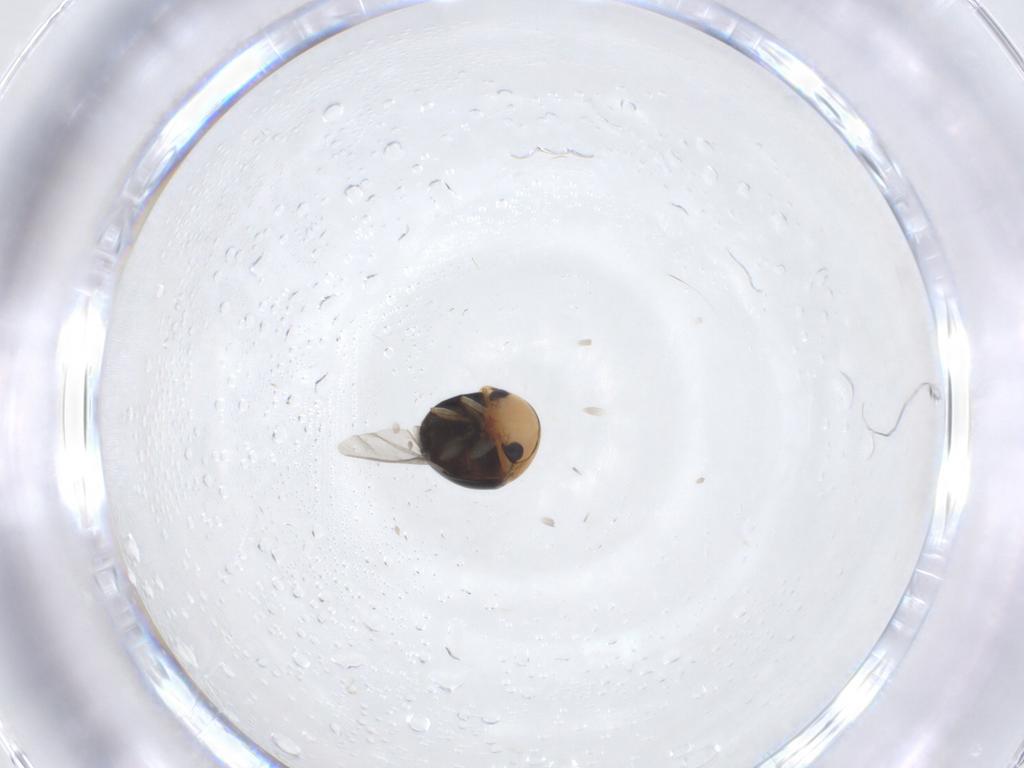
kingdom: Animalia
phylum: Arthropoda
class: Insecta
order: Coleoptera
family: Cybocephalidae
